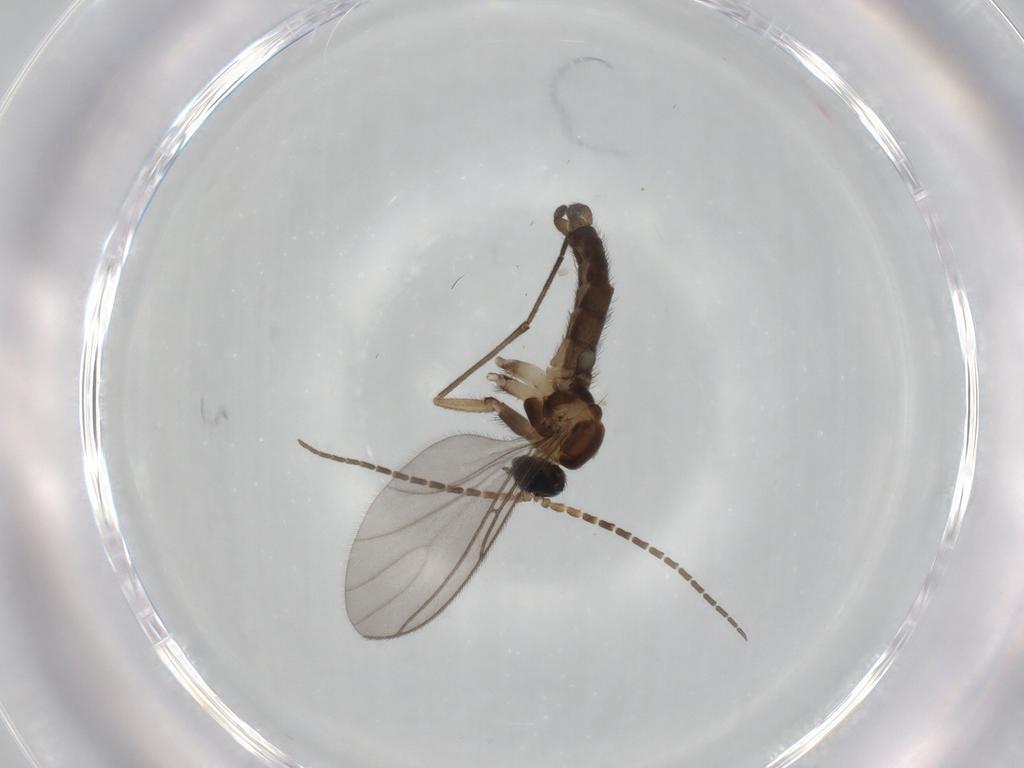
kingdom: Animalia
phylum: Arthropoda
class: Insecta
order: Diptera
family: Sciaridae
